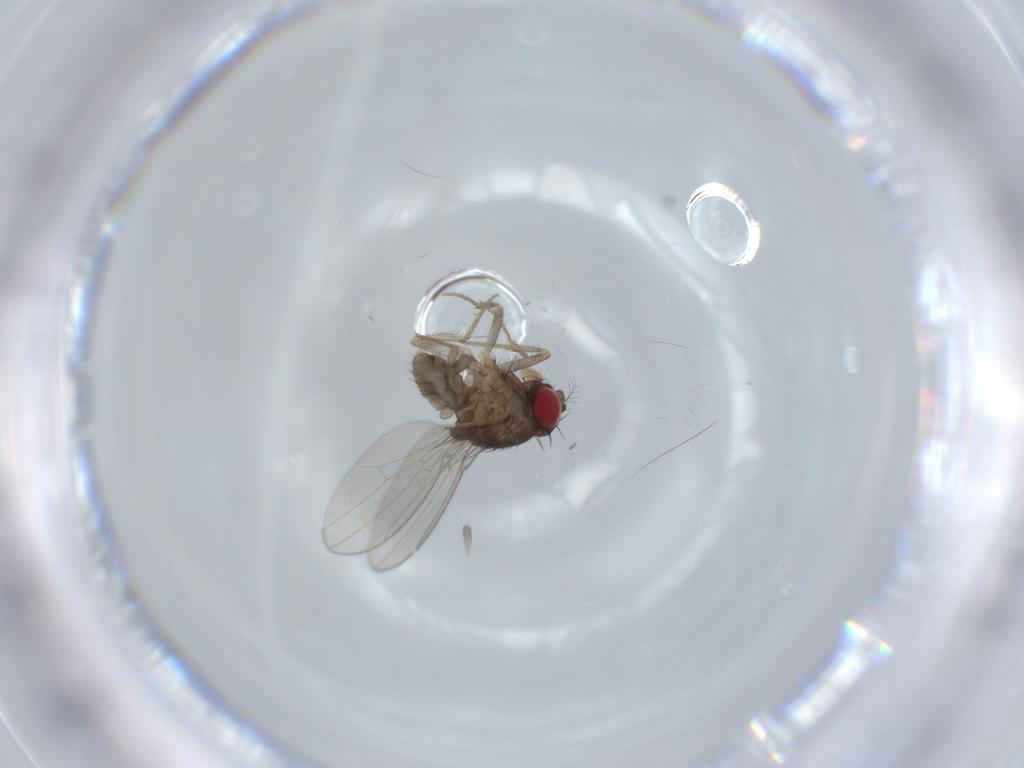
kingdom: Animalia
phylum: Arthropoda
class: Insecta
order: Diptera
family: Drosophilidae
